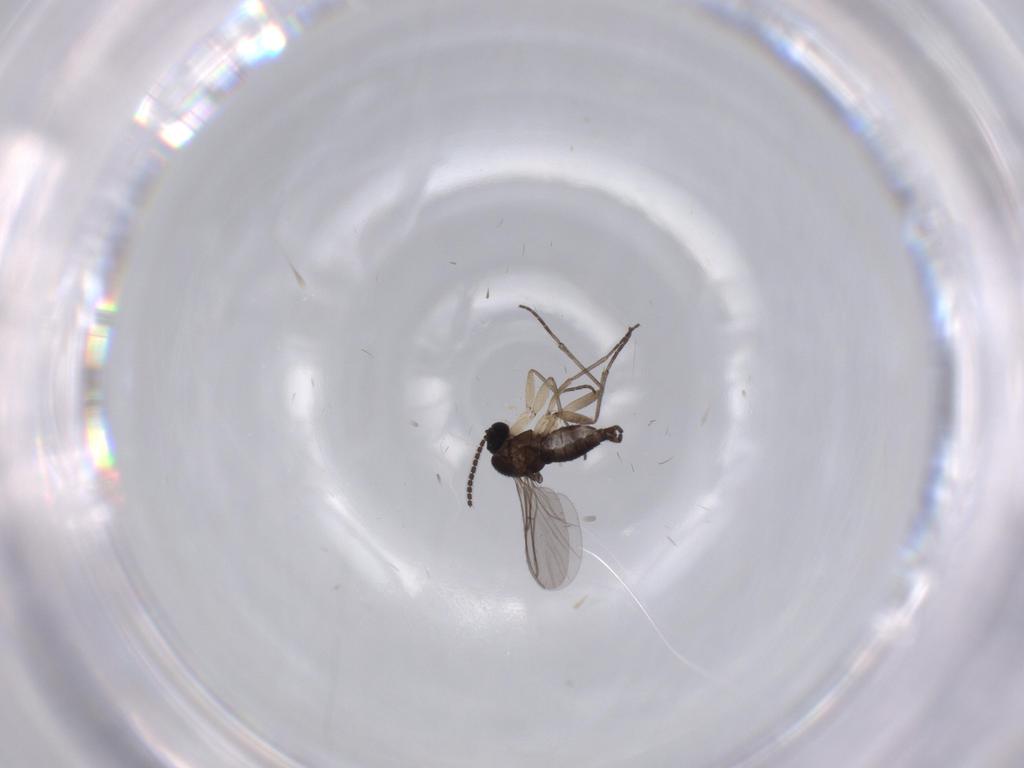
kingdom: Animalia
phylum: Arthropoda
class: Insecta
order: Diptera
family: Sciaridae
